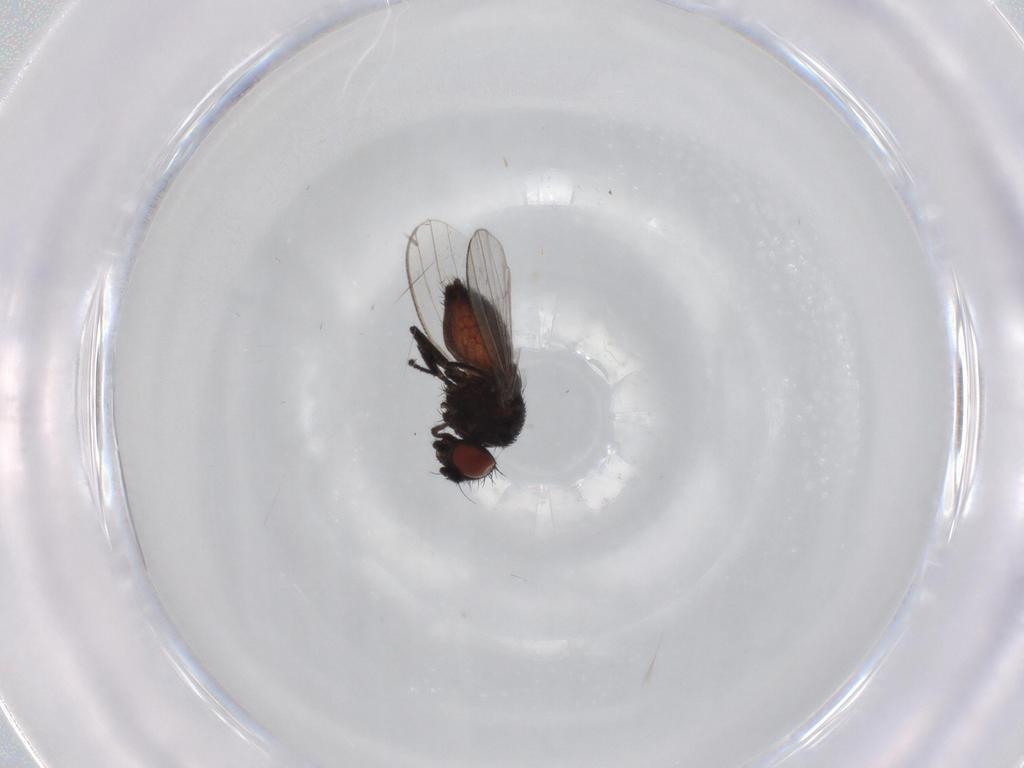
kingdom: Animalia
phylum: Arthropoda
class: Insecta
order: Diptera
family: Milichiidae
